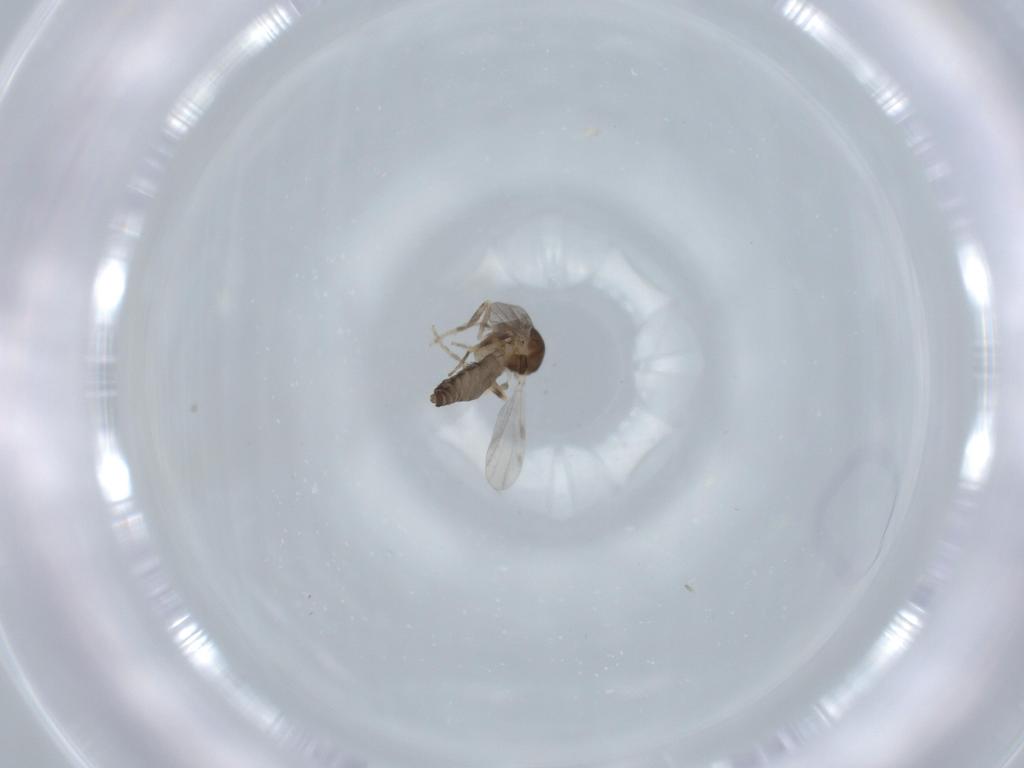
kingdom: Animalia
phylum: Arthropoda
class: Insecta
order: Diptera
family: Ceratopogonidae
